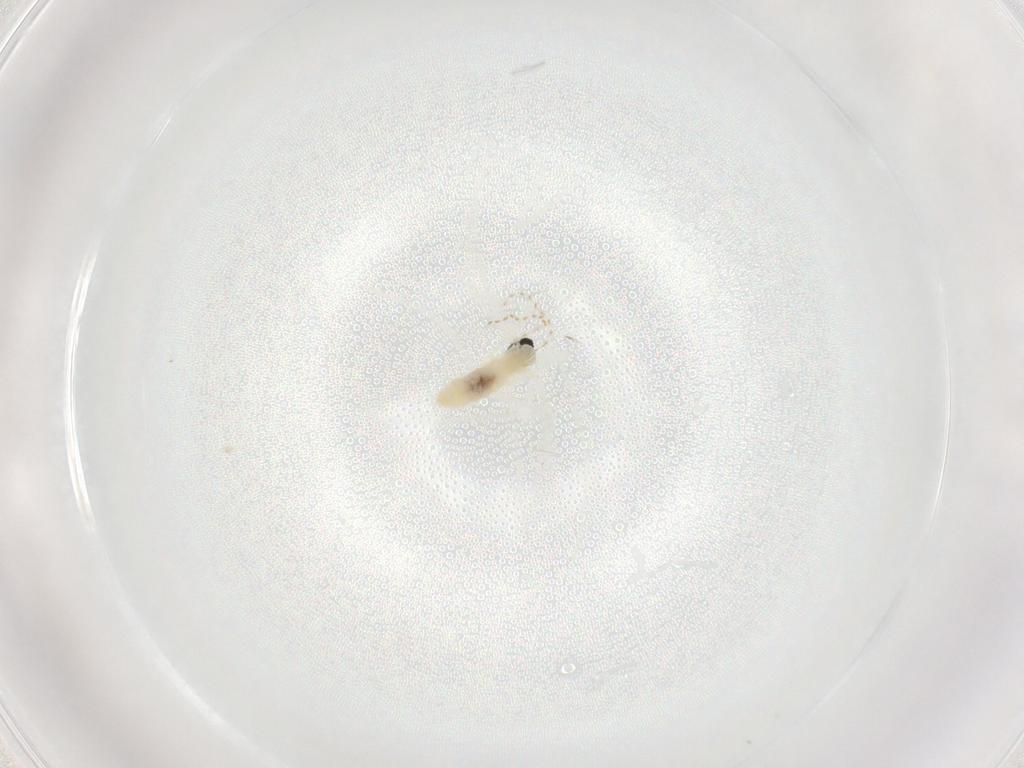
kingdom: Animalia
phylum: Arthropoda
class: Insecta
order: Diptera
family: Cecidomyiidae
